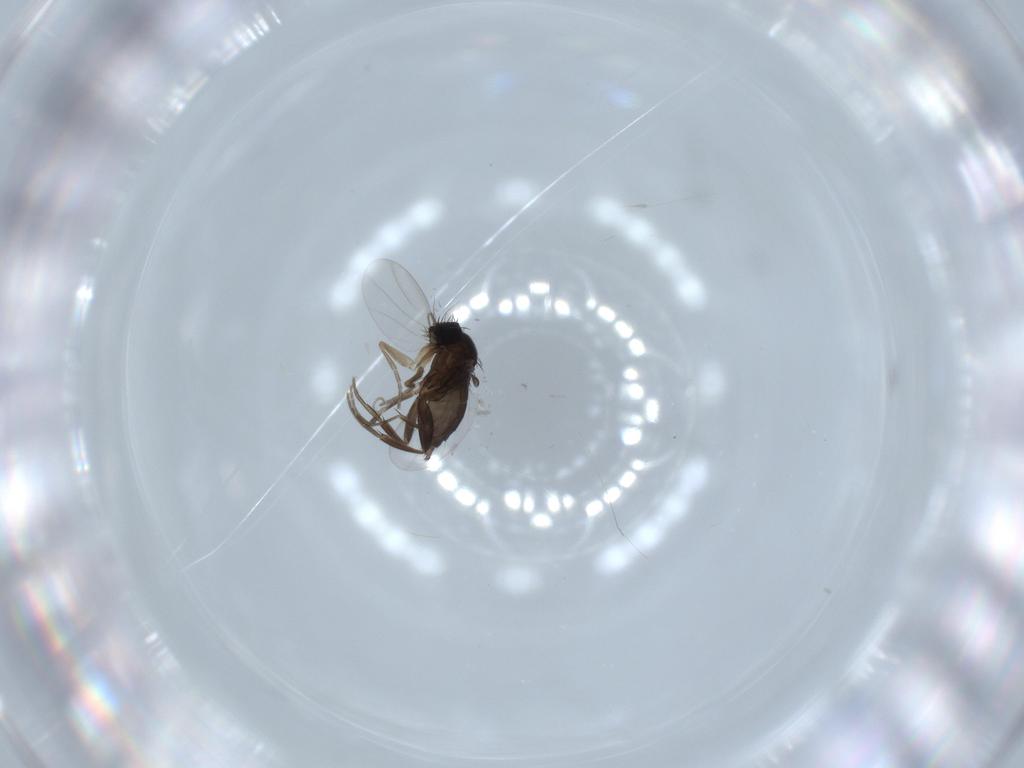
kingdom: Animalia
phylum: Arthropoda
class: Insecta
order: Diptera
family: Phoridae
